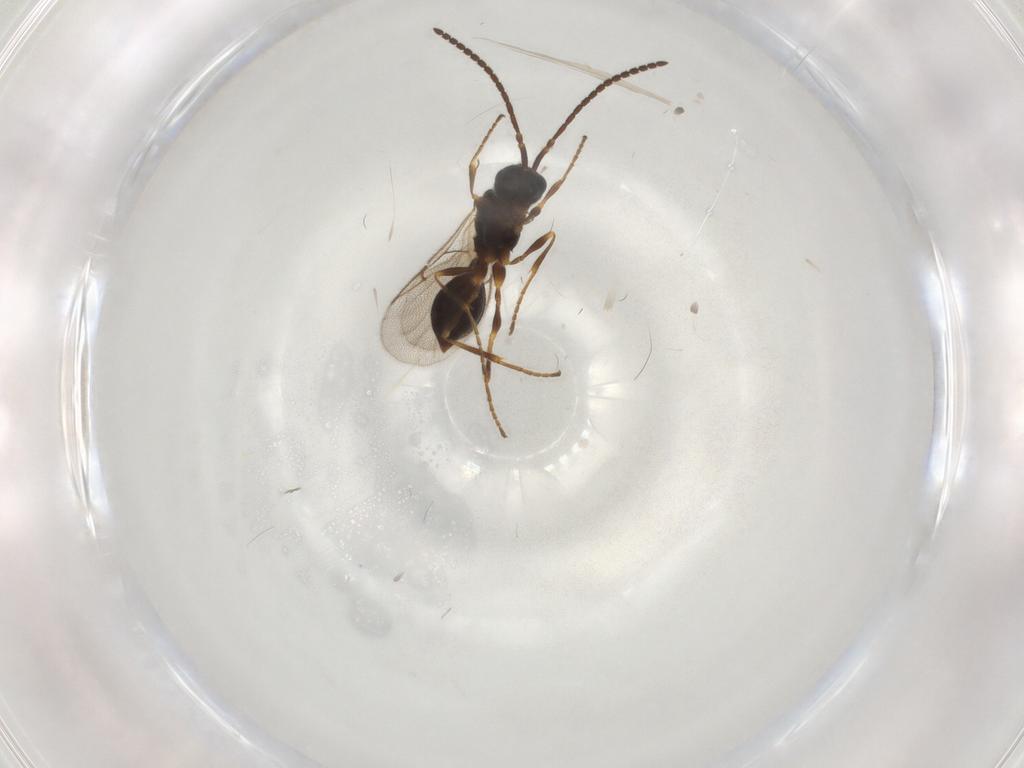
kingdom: Animalia
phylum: Arthropoda
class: Insecta
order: Hymenoptera
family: Diapriidae
